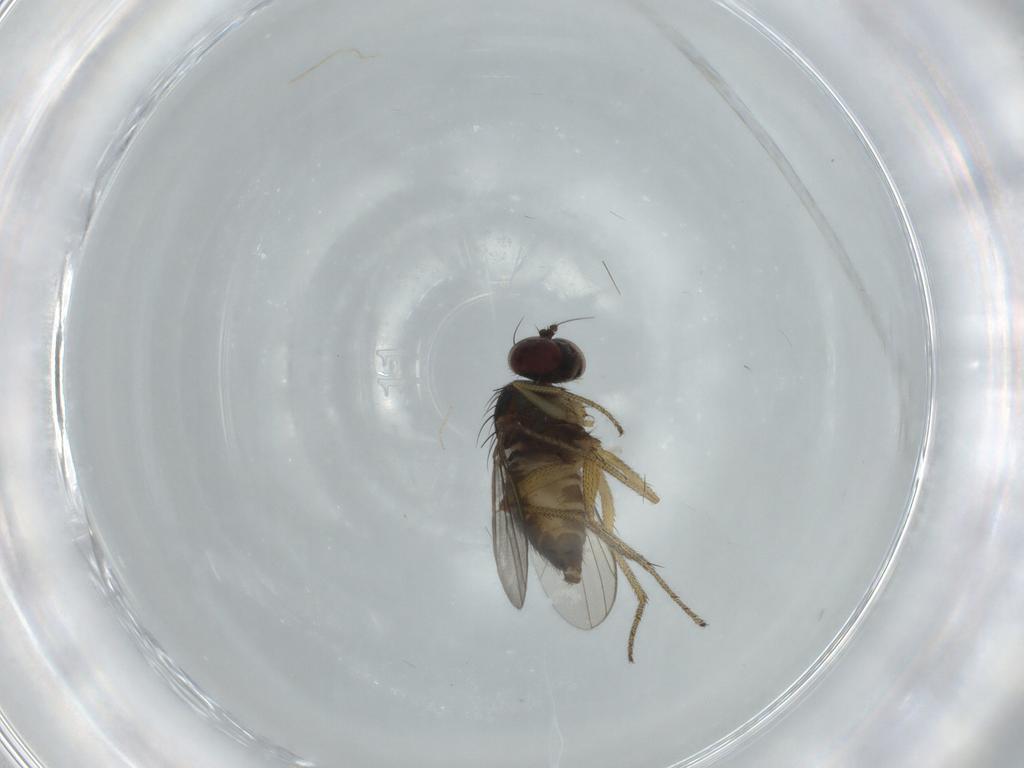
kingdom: Animalia
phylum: Arthropoda
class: Insecta
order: Diptera
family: Dolichopodidae
